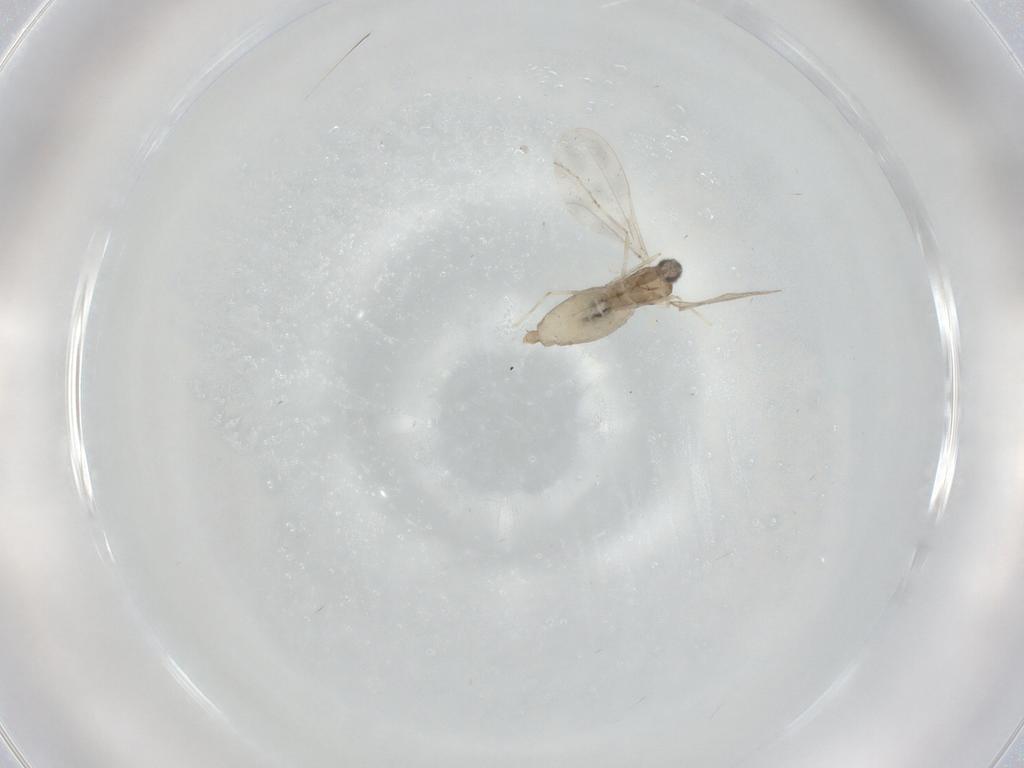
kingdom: Animalia
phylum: Arthropoda
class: Insecta
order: Diptera
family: Cecidomyiidae
